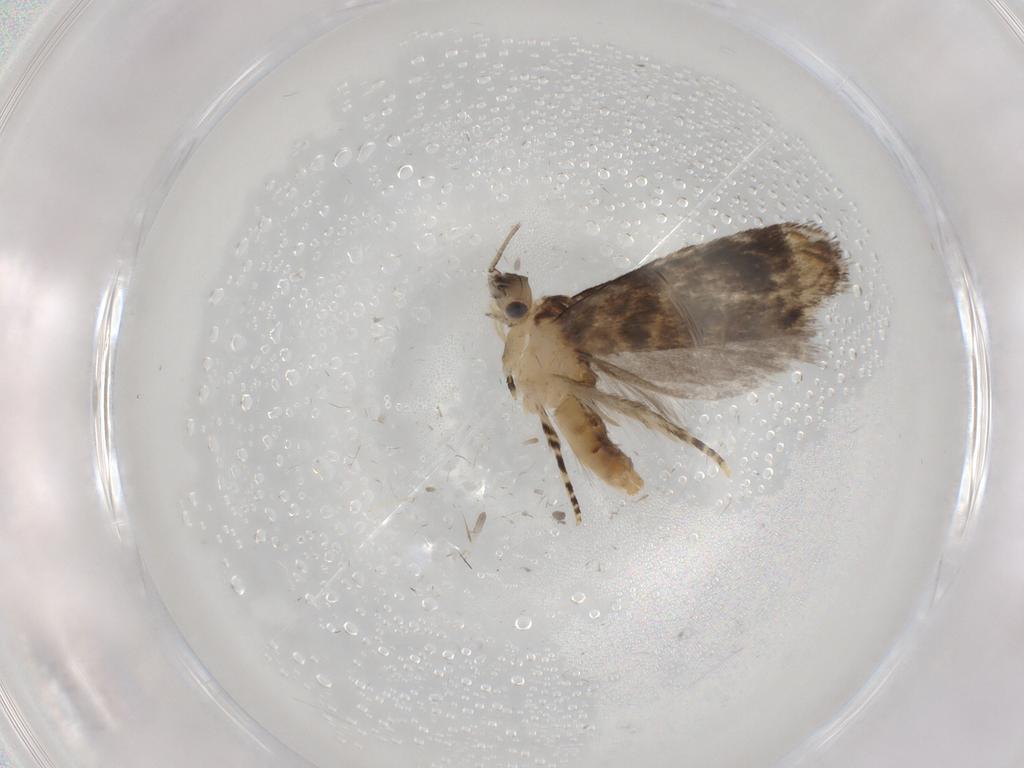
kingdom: Animalia
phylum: Arthropoda
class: Insecta
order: Lepidoptera
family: Tineidae
